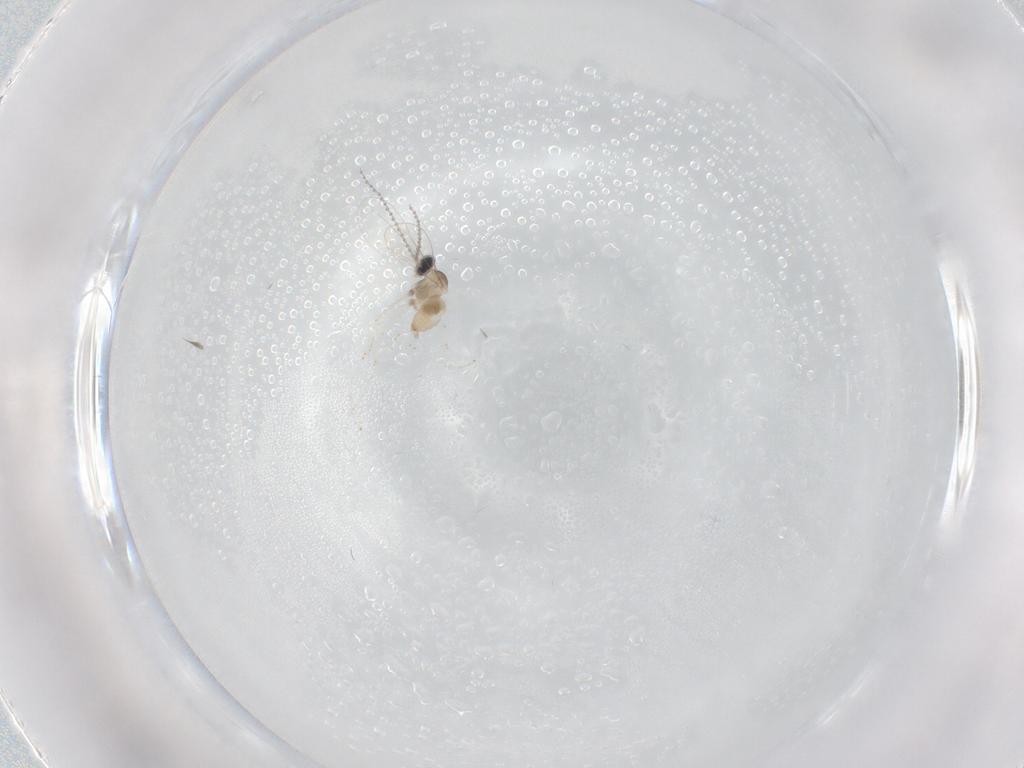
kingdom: Animalia
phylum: Arthropoda
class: Insecta
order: Diptera
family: Cecidomyiidae
